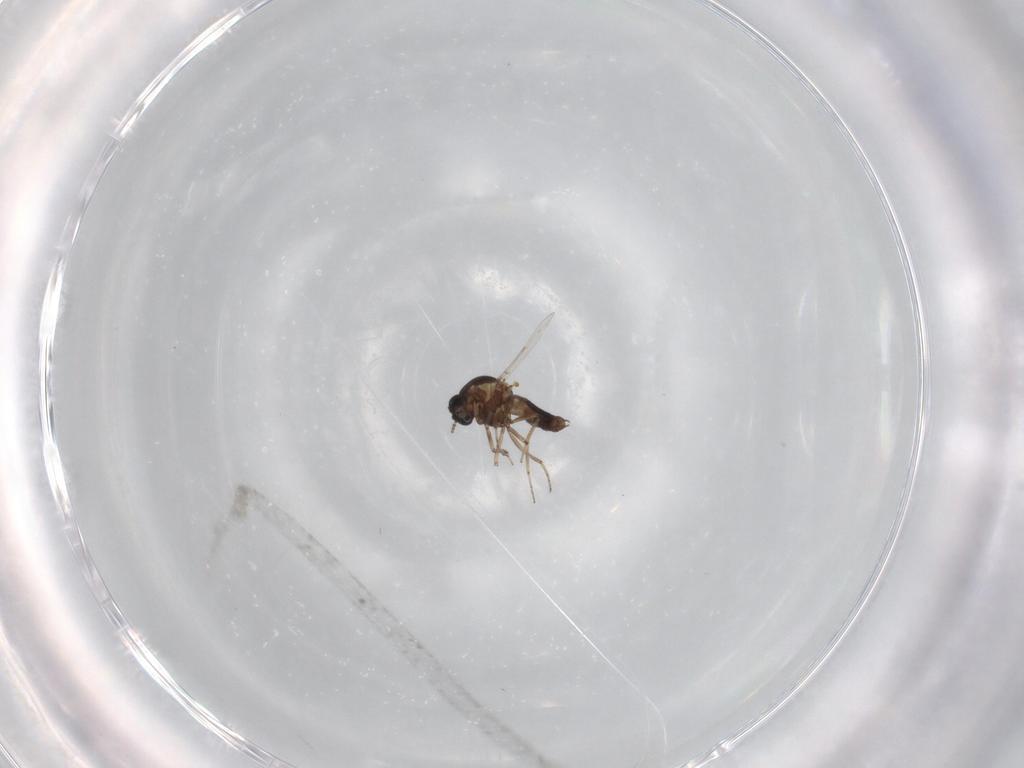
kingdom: Animalia
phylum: Arthropoda
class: Insecta
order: Diptera
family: Ceratopogonidae
